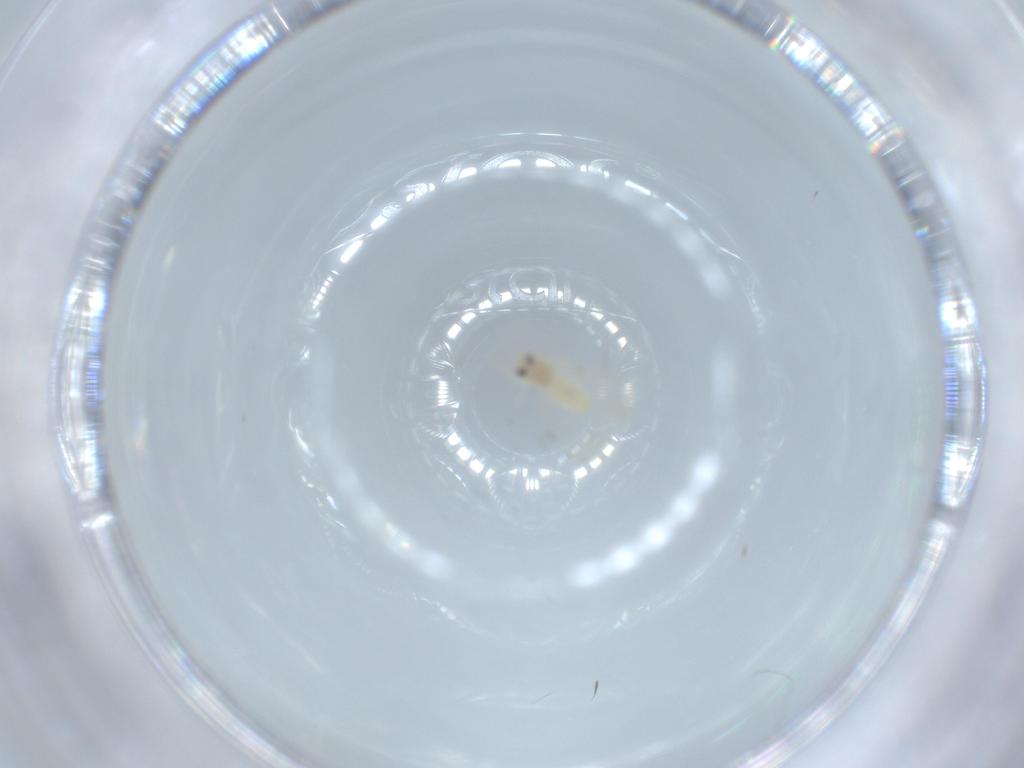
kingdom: Animalia
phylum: Arthropoda
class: Insecta
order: Hemiptera
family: Aleyrodidae
